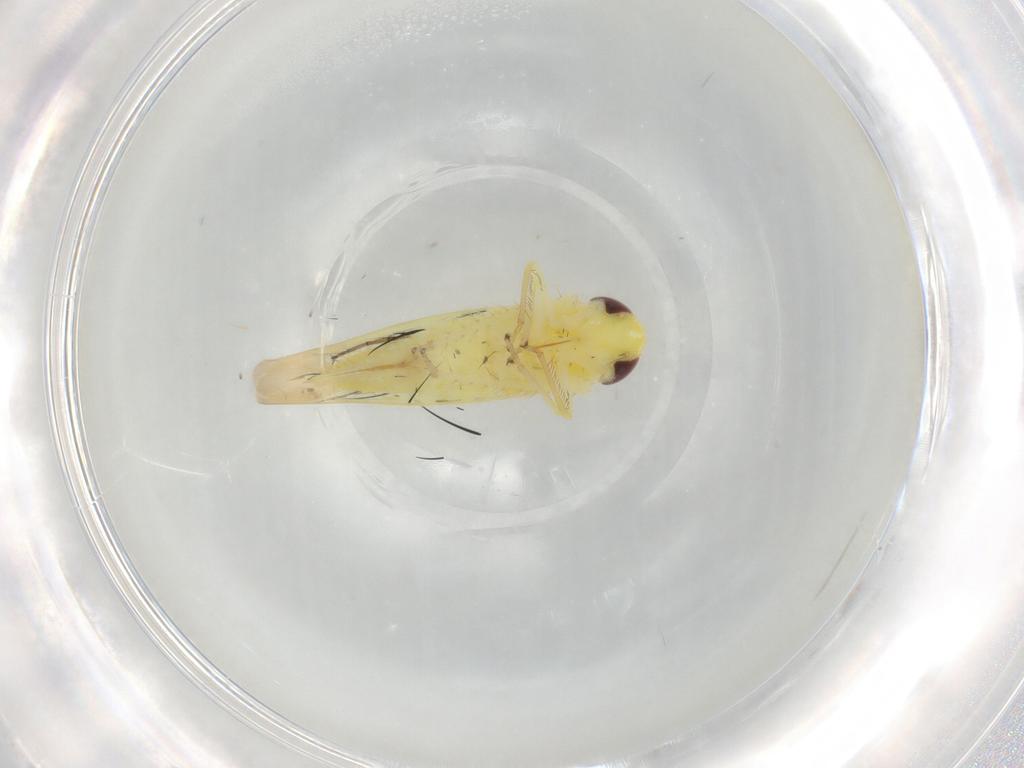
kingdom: Animalia
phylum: Arthropoda
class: Insecta
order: Hemiptera
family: Cicadellidae
